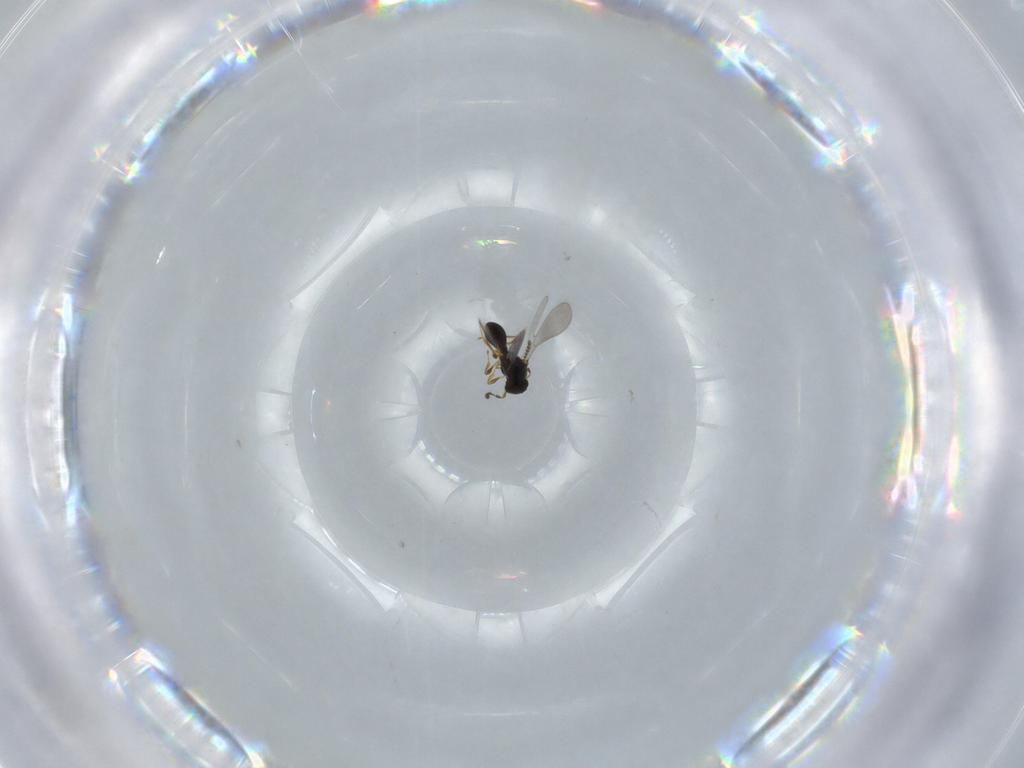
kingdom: Animalia
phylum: Arthropoda
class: Insecta
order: Hymenoptera
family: Platygastridae
